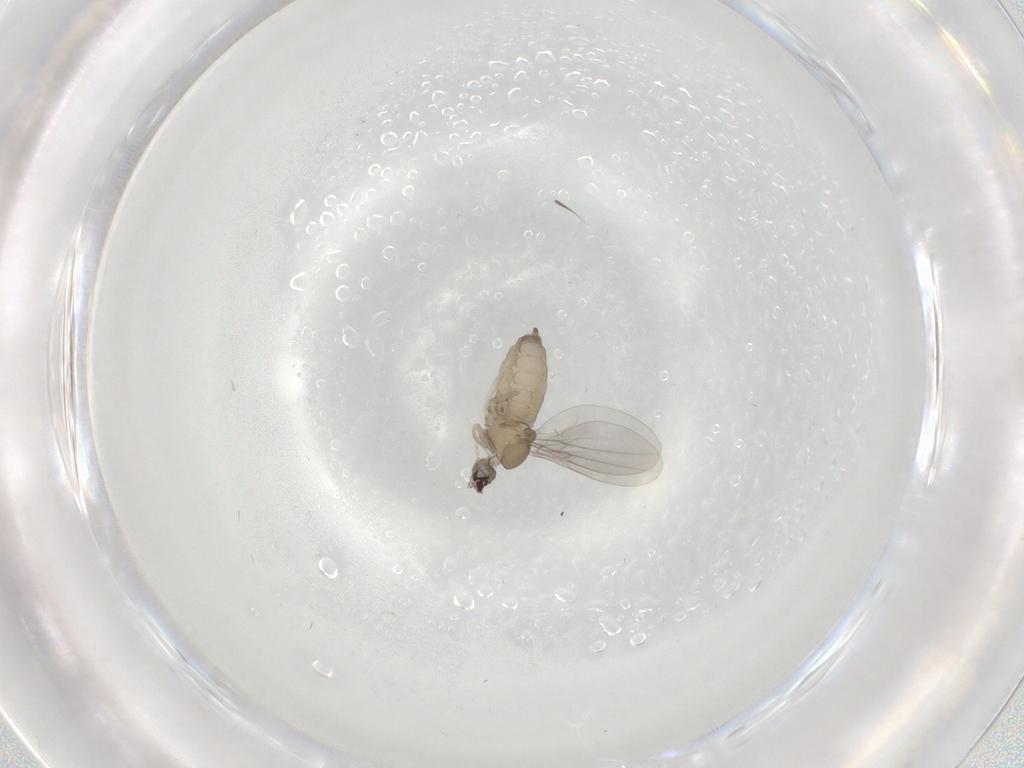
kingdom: Animalia
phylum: Arthropoda
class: Insecta
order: Diptera
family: Cecidomyiidae
